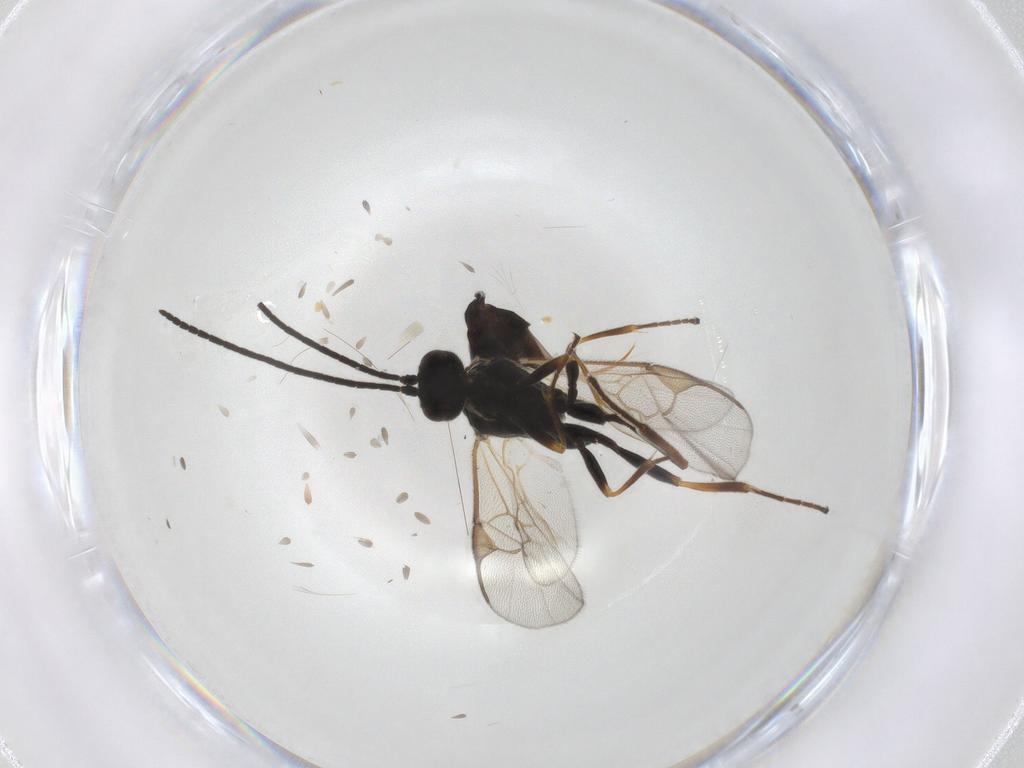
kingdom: Animalia
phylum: Arthropoda
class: Insecta
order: Hymenoptera
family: Braconidae
